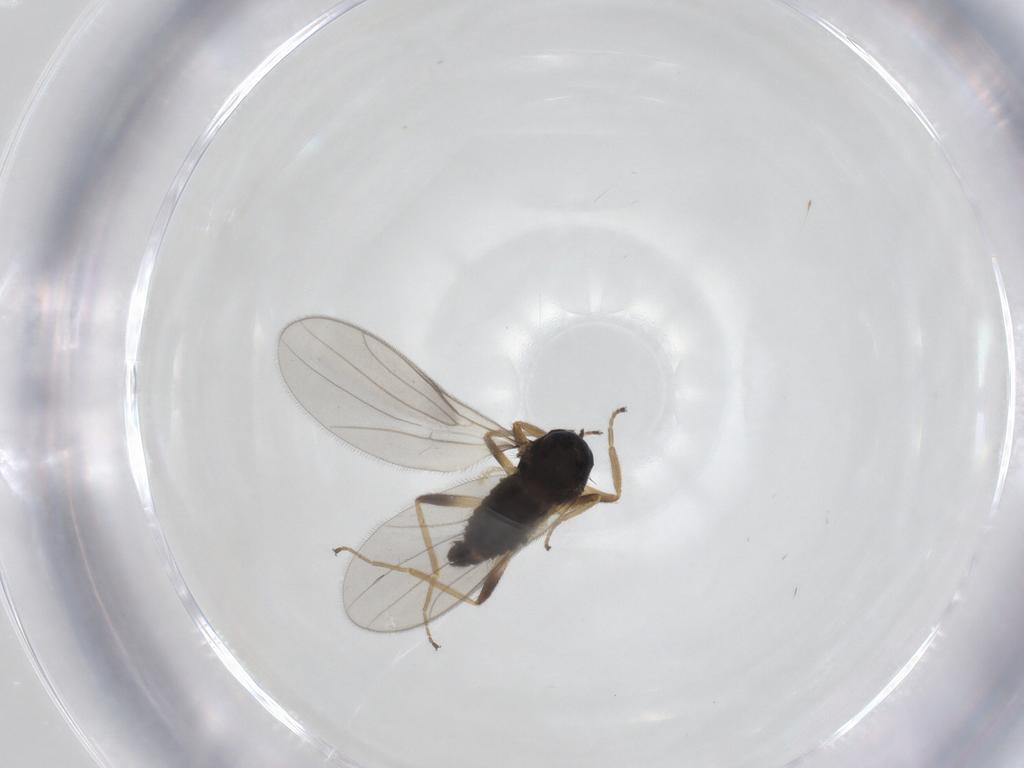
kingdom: Animalia
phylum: Arthropoda
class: Insecta
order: Diptera
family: Hybotidae
